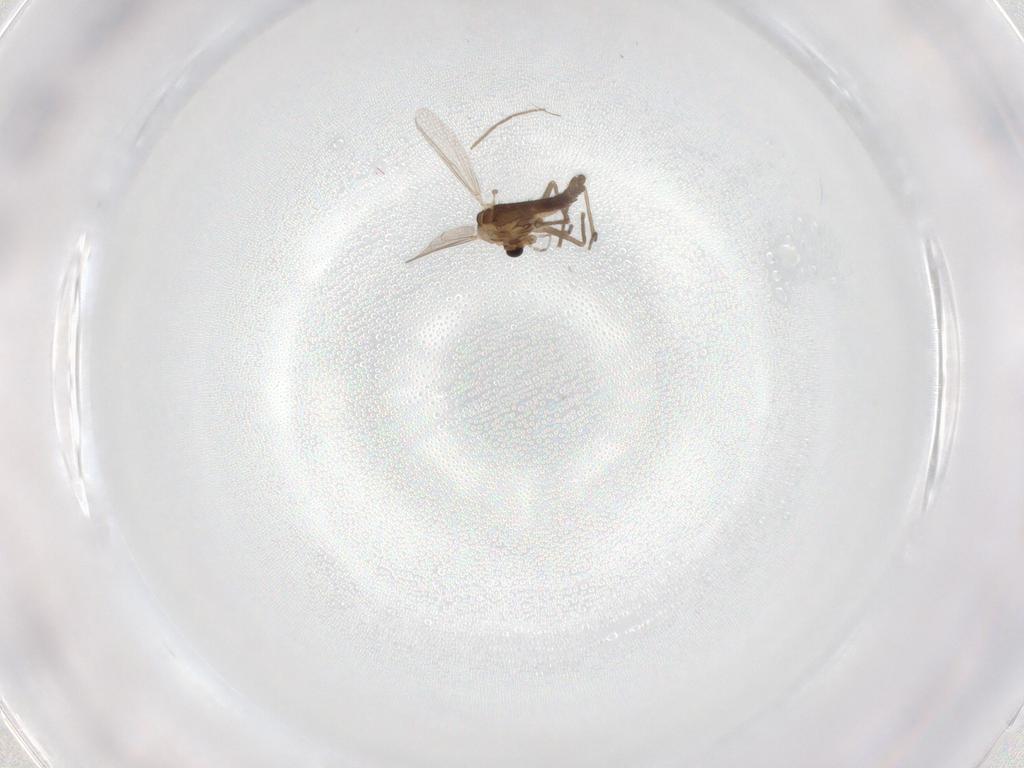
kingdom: Animalia
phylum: Arthropoda
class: Insecta
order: Diptera
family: Chironomidae
